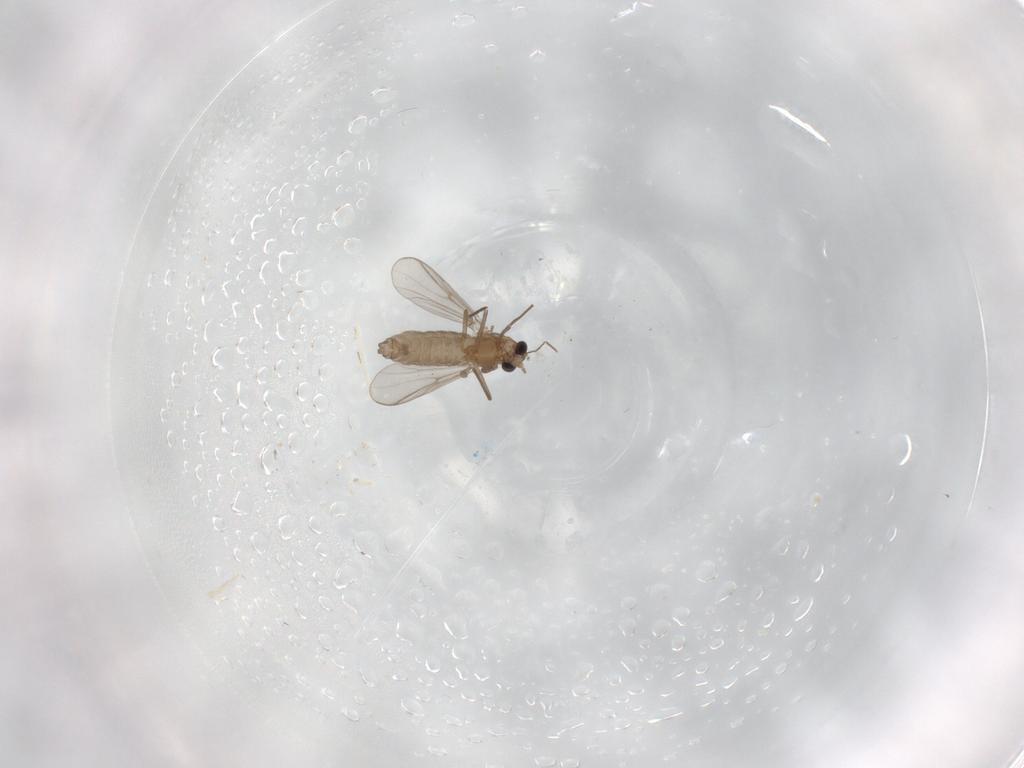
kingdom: Animalia
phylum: Arthropoda
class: Insecta
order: Diptera
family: Chironomidae
